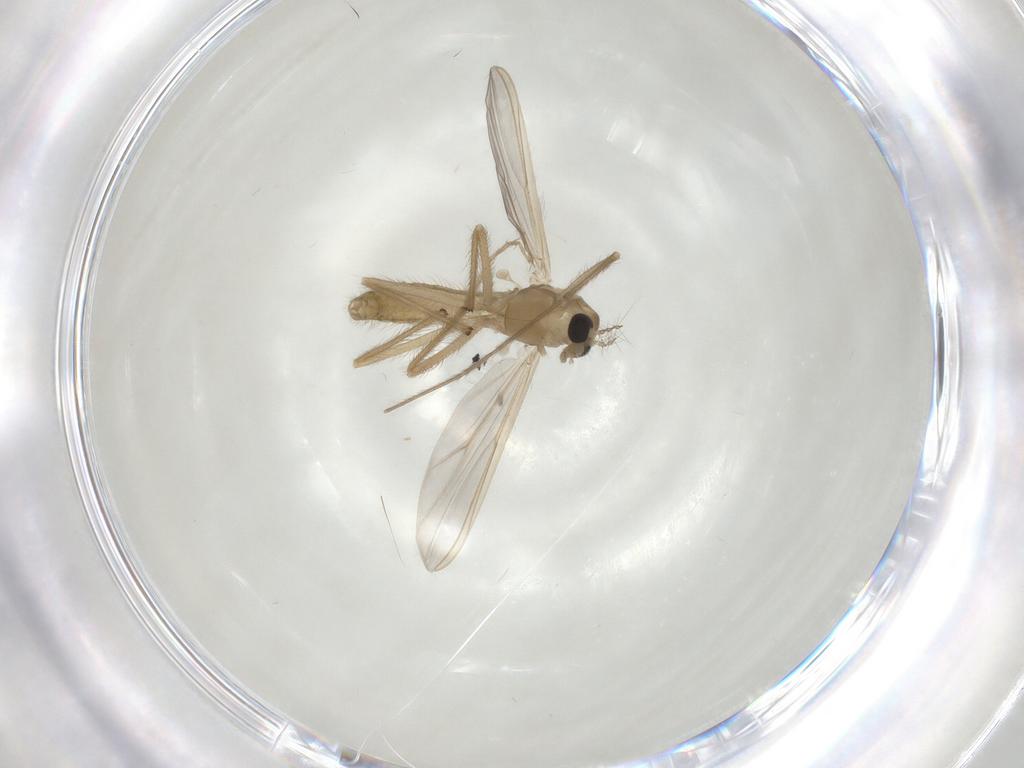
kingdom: Animalia
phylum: Arthropoda
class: Insecta
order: Diptera
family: Chironomidae
